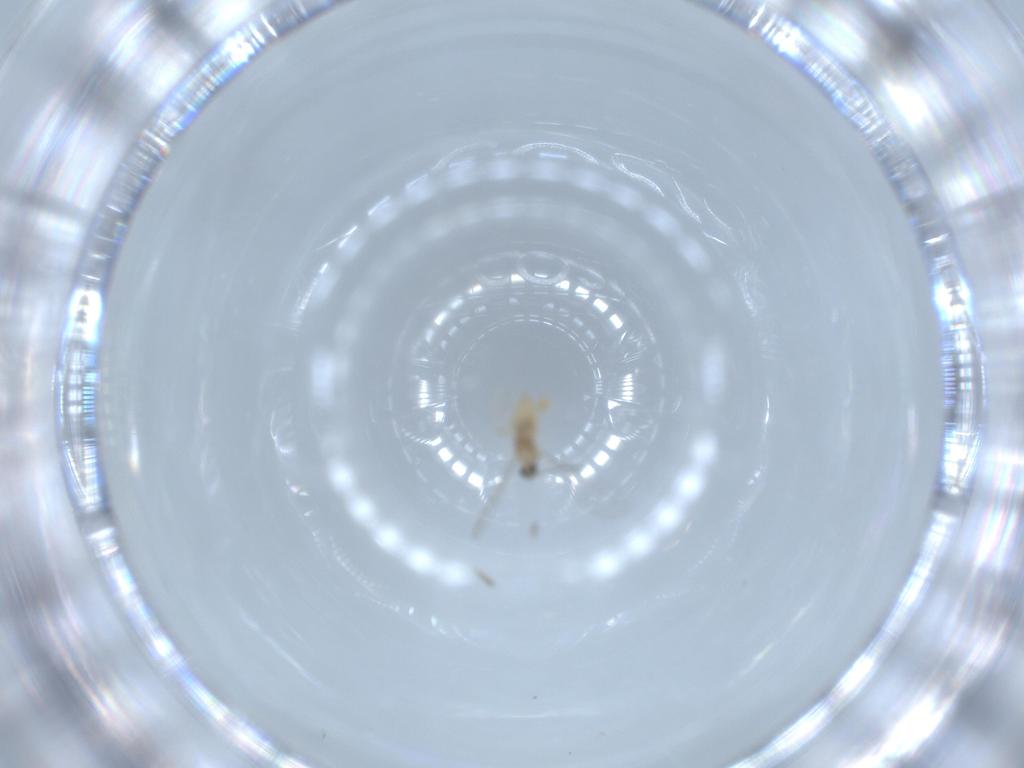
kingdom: Animalia
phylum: Arthropoda
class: Insecta
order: Diptera
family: Cecidomyiidae
